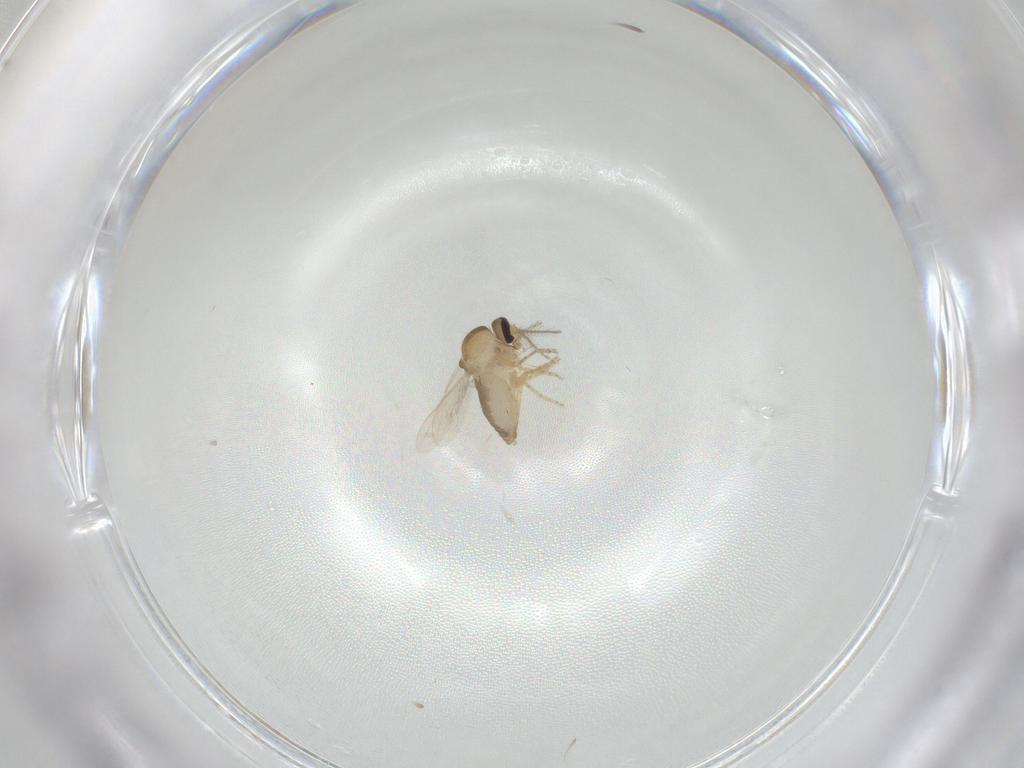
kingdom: Animalia
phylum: Arthropoda
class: Insecta
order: Diptera
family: Ceratopogonidae
